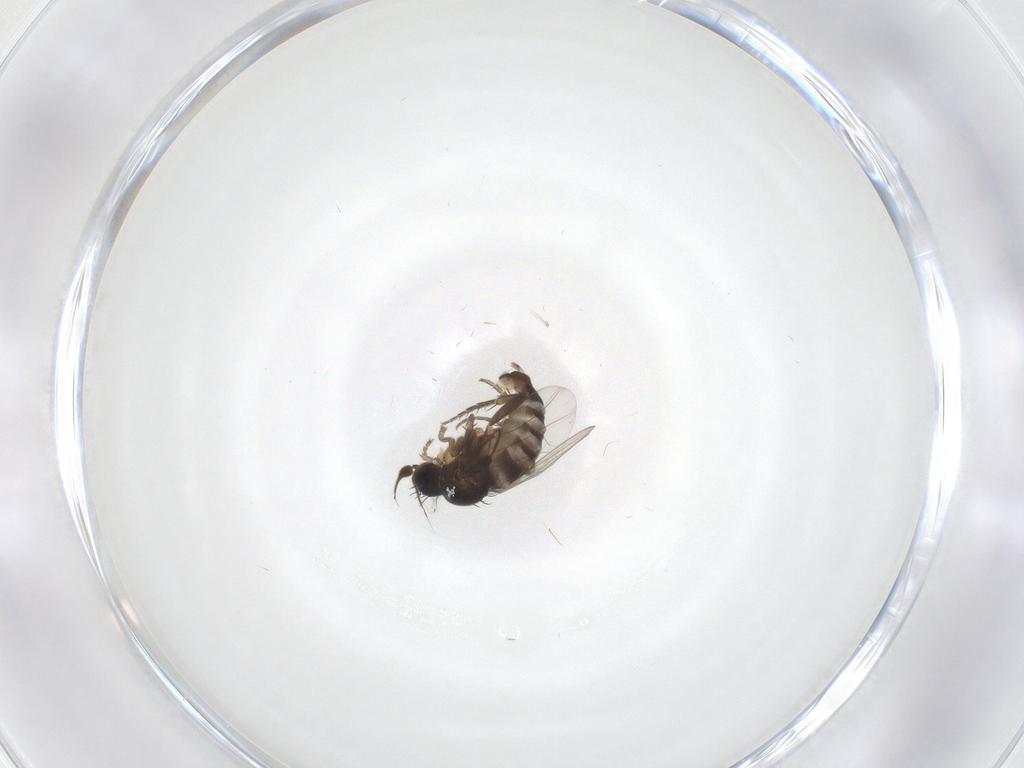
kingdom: Animalia
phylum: Arthropoda
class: Insecta
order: Diptera
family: Phoridae
